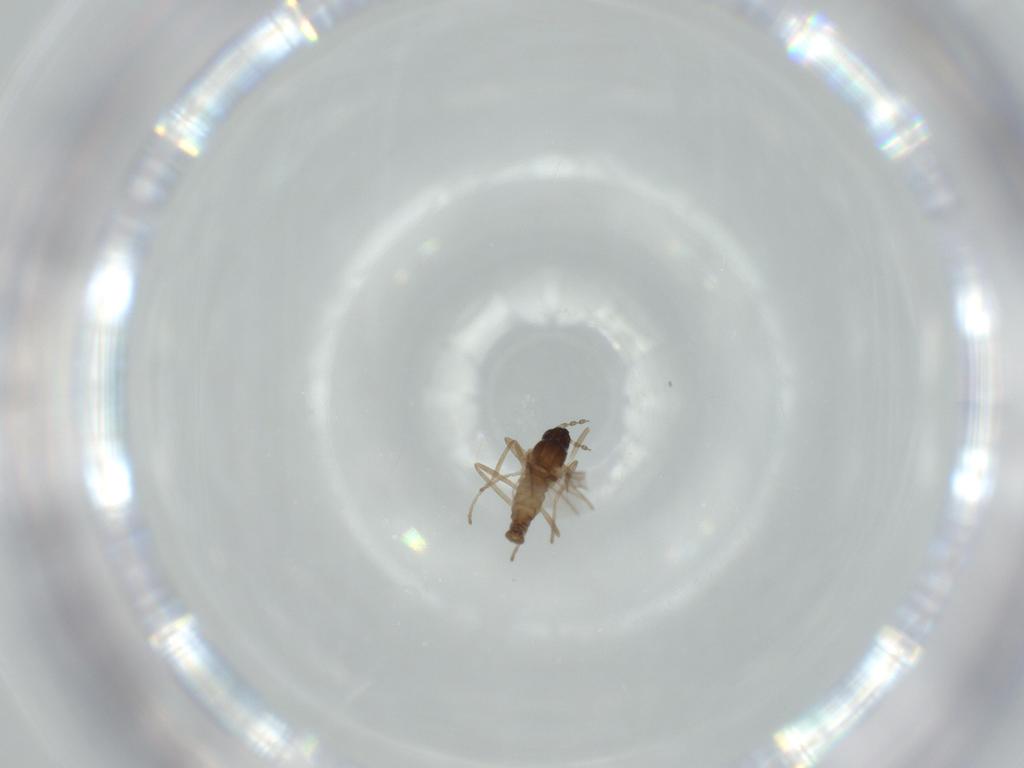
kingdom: Animalia
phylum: Arthropoda
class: Insecta
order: Diptera
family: Cecidomyiidae
